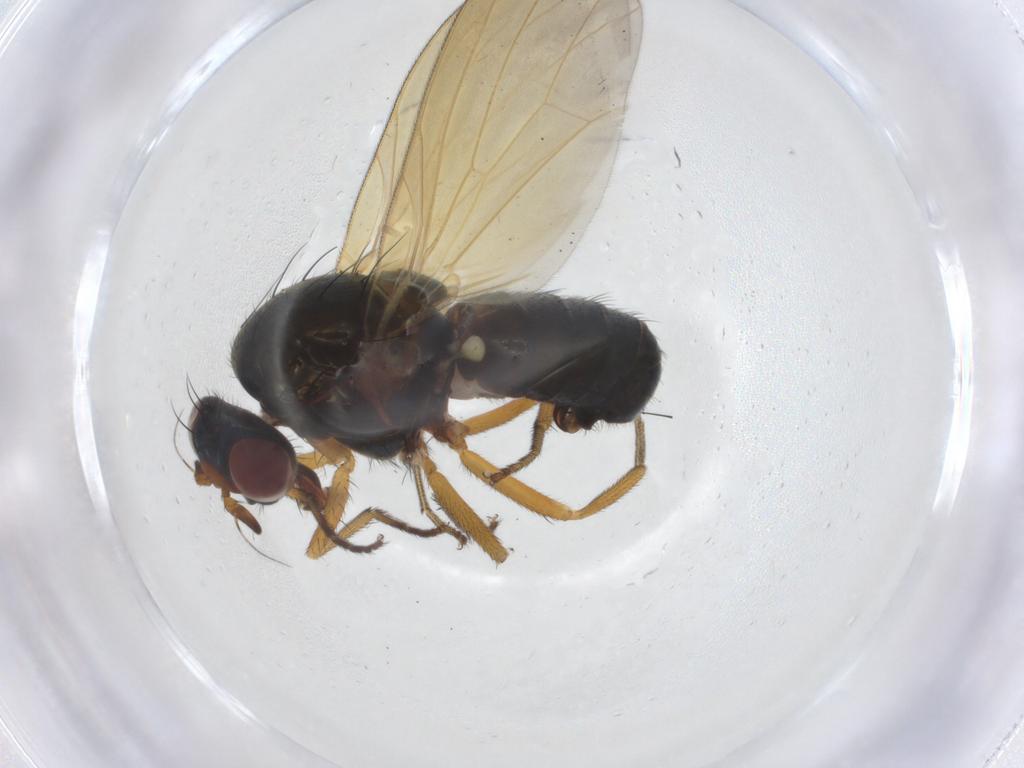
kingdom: Animalia
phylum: Arthropoda
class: Insecta
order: Diptera
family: Lauxaniidae
